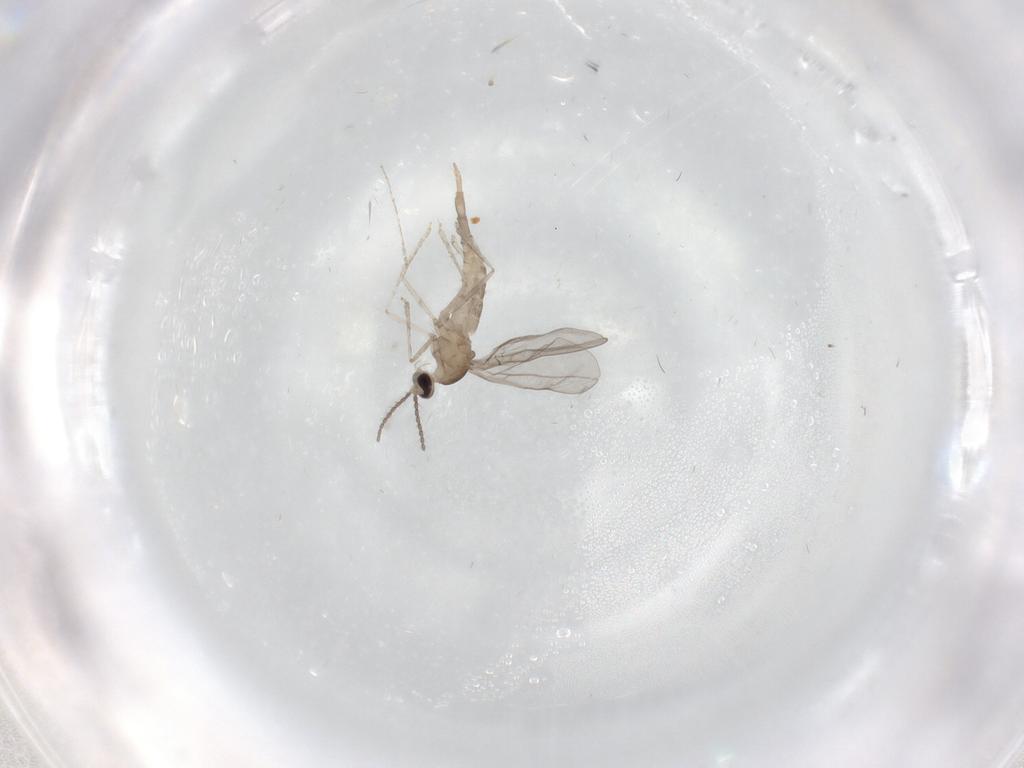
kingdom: Animalia
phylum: Arthropoda
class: Insecta
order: Diptera
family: Cecidomyiidae
